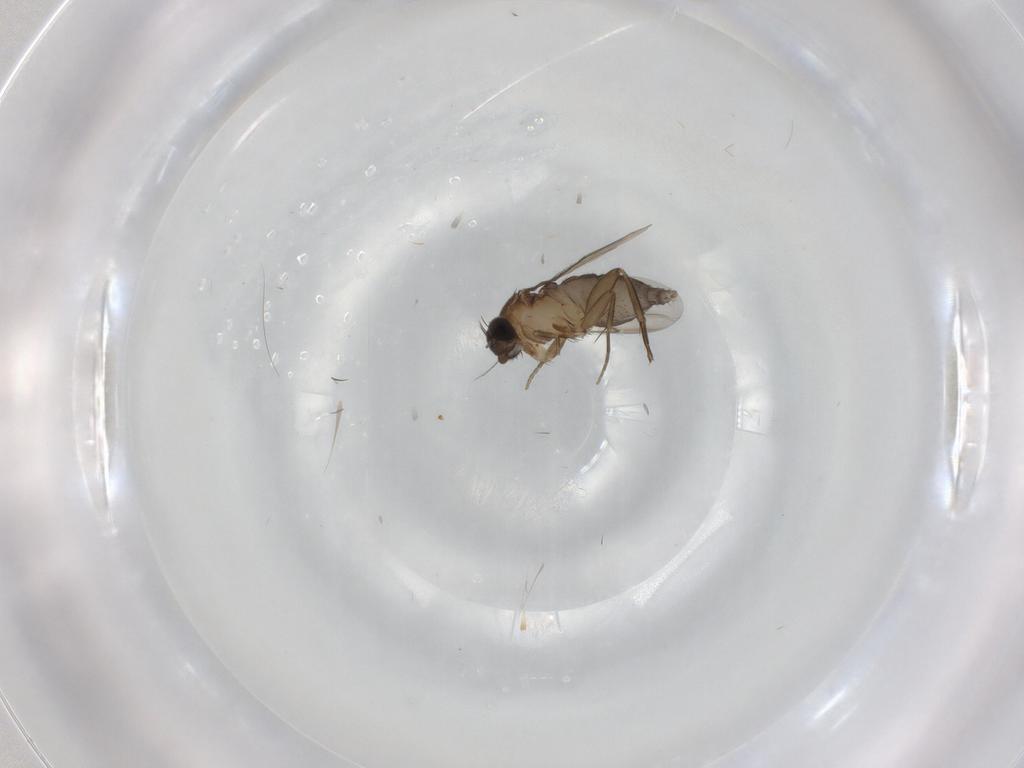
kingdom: Animalia
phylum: Arthropoda
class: Insecta
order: Diptera
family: Phoridae
